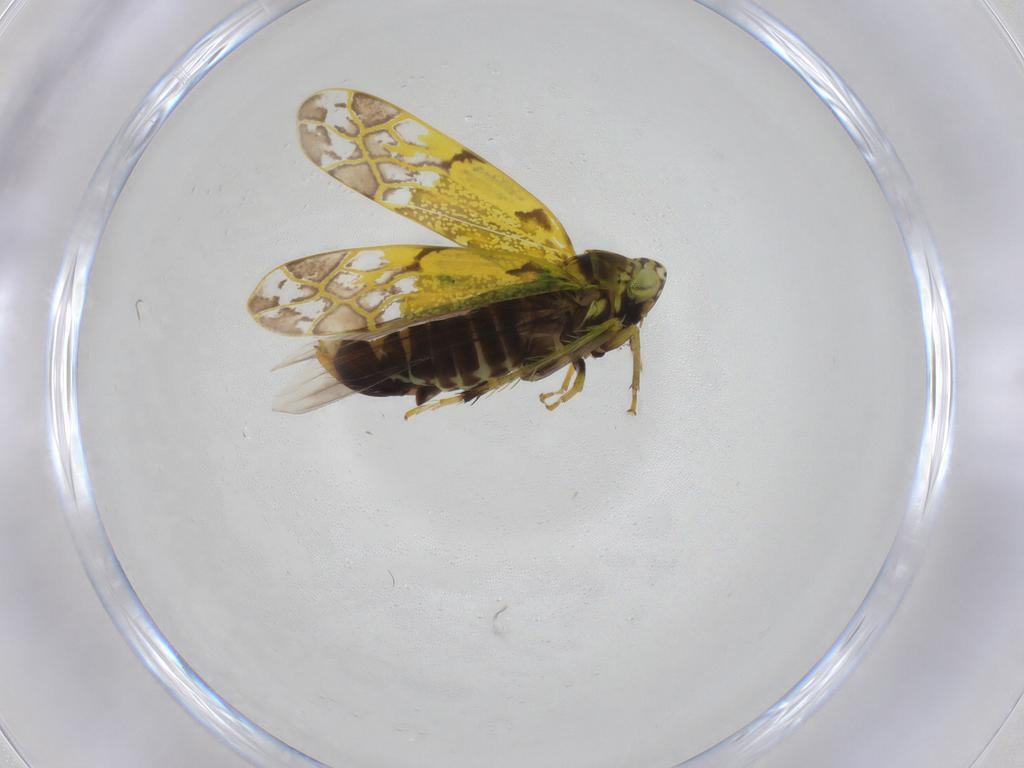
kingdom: Animalia
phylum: Arthropoda
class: Insecta
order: Hemiptera
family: Cicadellidae
